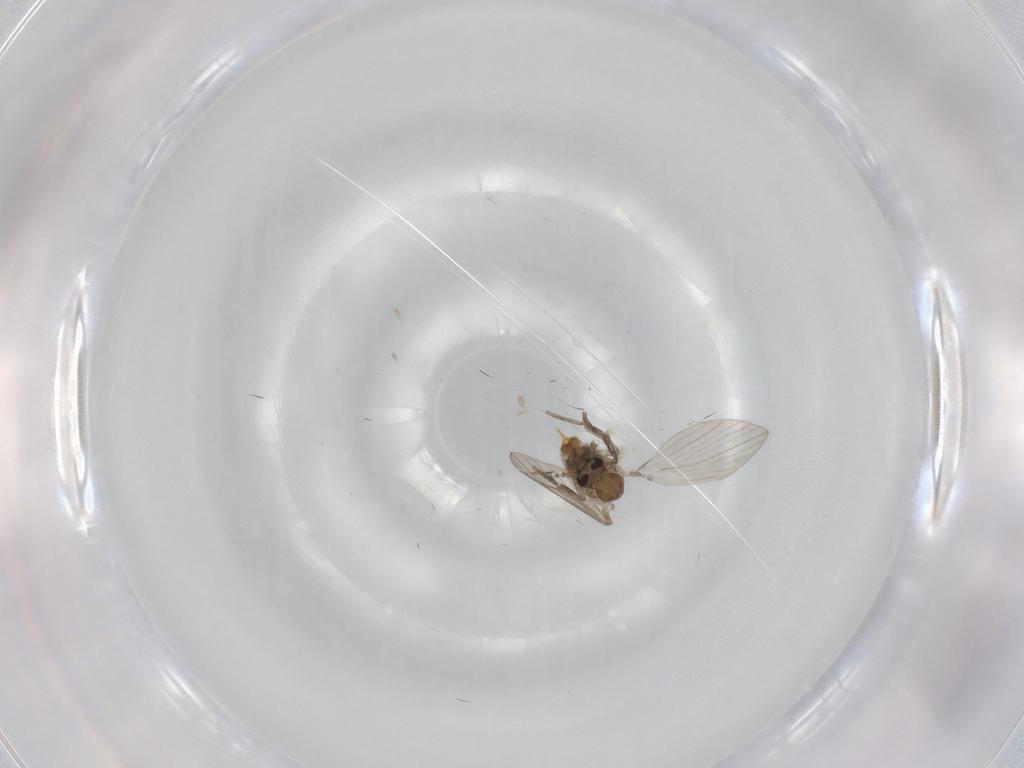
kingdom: Animalia
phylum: Arthropoda
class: Insecta
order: Diptera
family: Psychodidae
